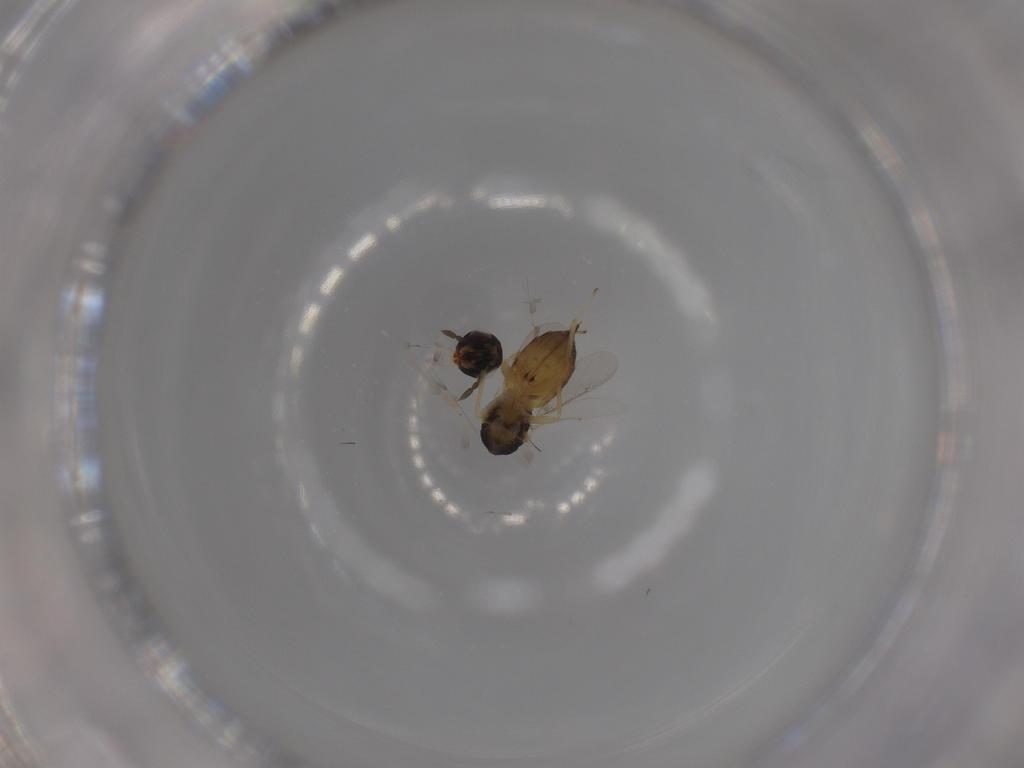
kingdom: Animalia
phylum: Arthropoda
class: Insecta
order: Hymenoptera
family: Eulophidae
